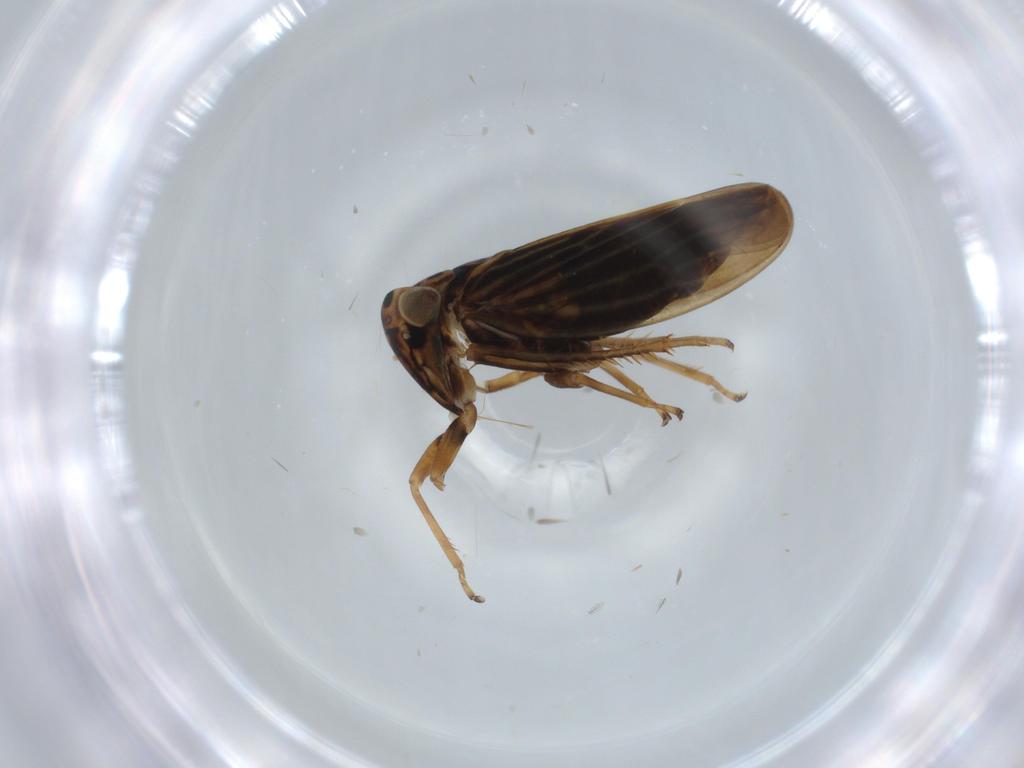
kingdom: Animalia
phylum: Arthropoda
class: Insecta
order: Hemiptera
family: Cicadellidae
